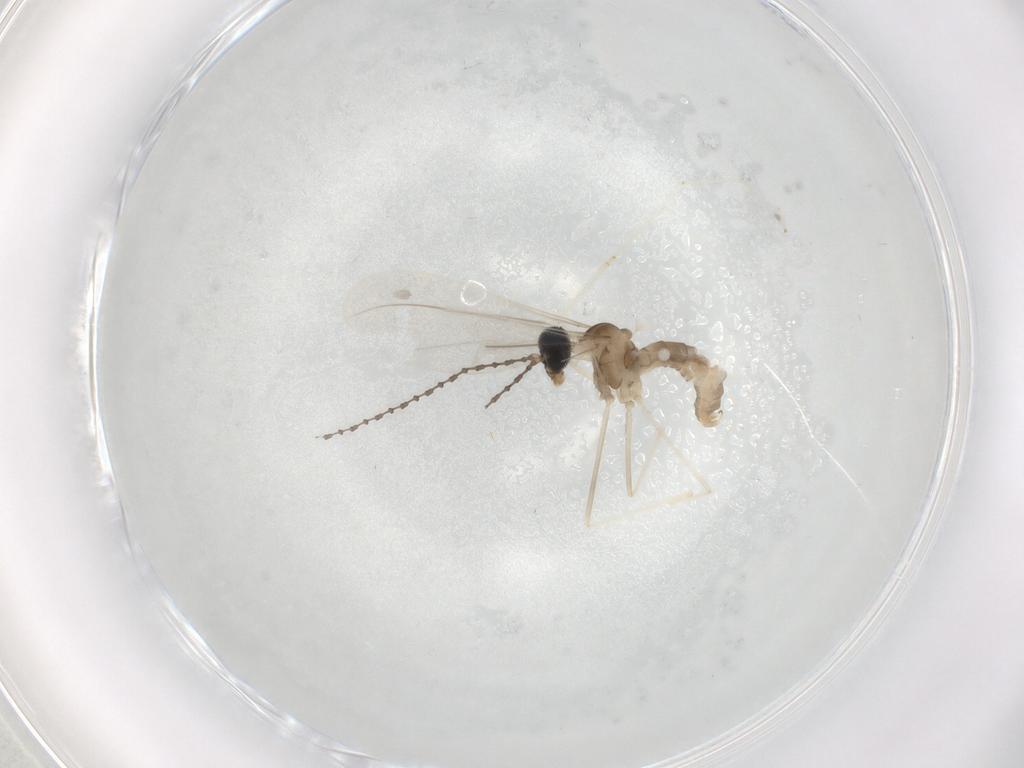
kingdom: Animalia
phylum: Arthropoda
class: Insecta
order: Diptera
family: Cecidomyiidae
